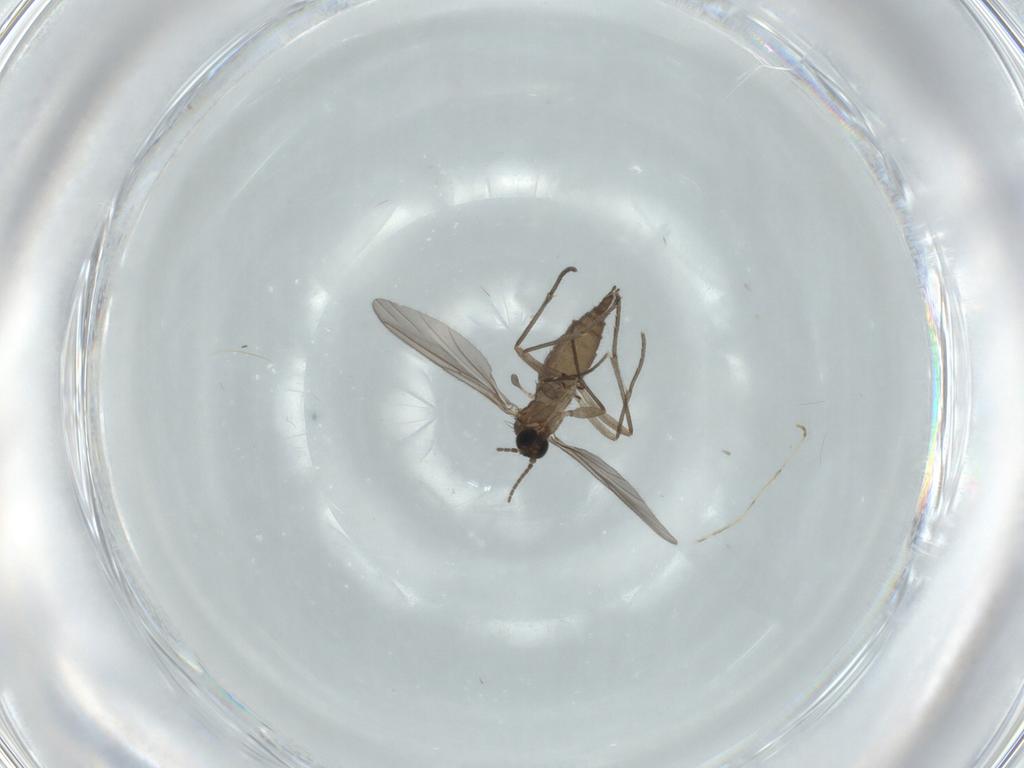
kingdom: Animalia
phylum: Arthropoda
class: Insecta
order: Diptera
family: Sciaridae
